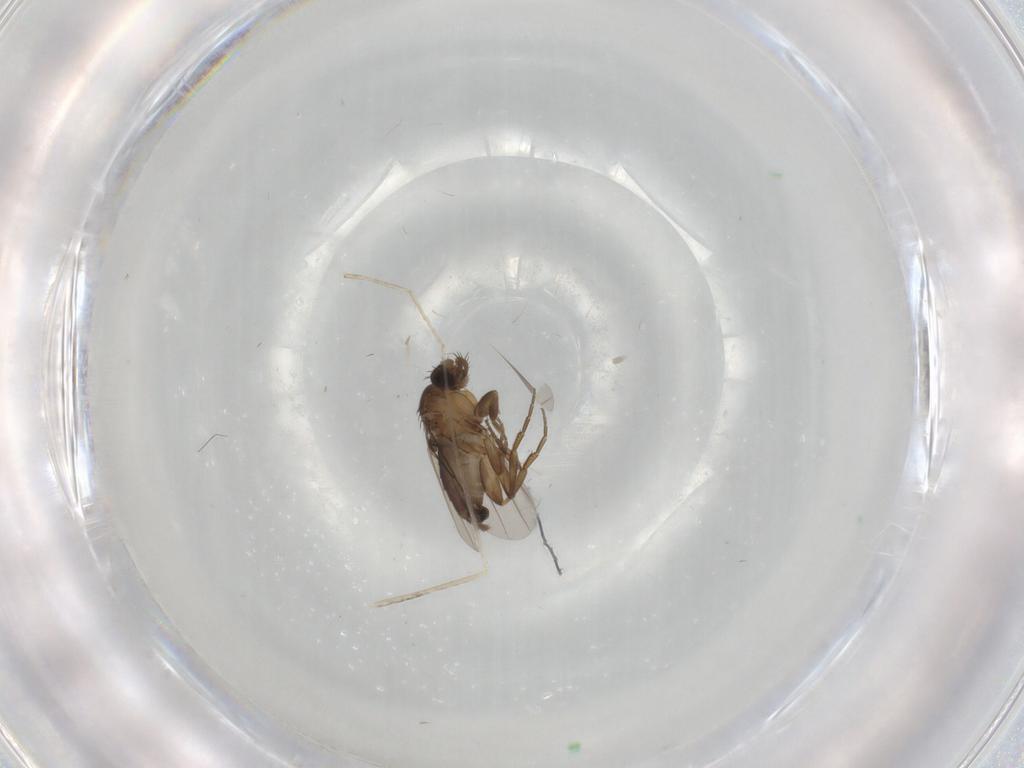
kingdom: Animalia
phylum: Arthropoda
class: Insecta
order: Diptera
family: Cecidomyiidae
